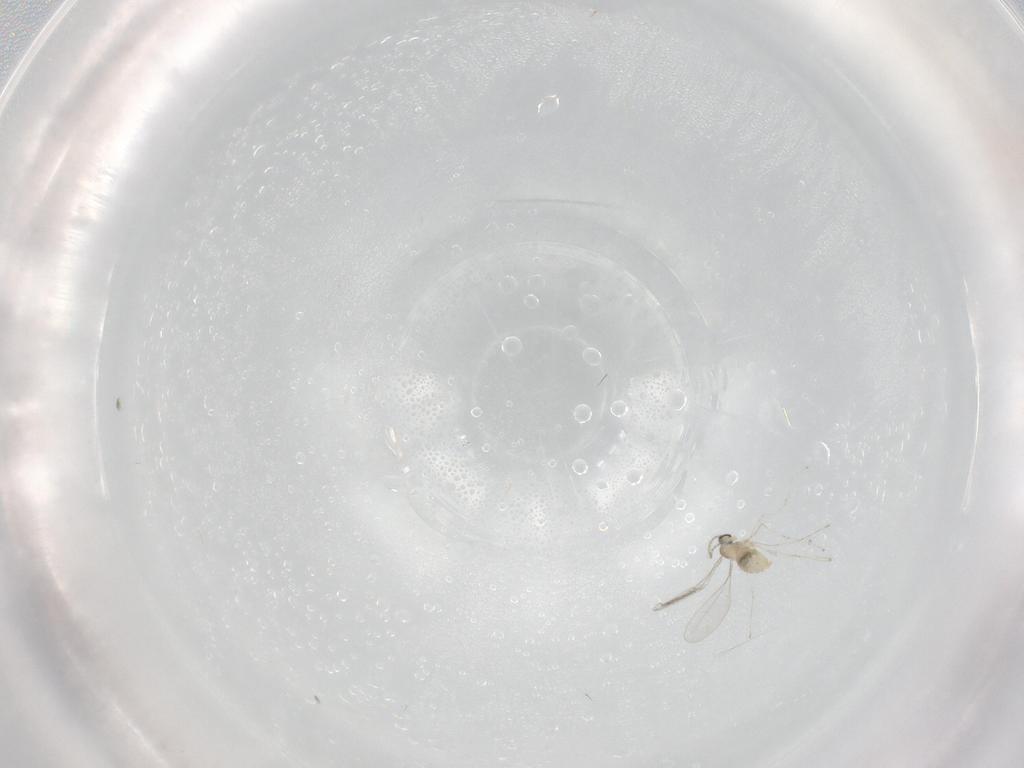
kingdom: Animalia
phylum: Arthropoda
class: Insecta
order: Diptera
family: Cecidomyiidae
